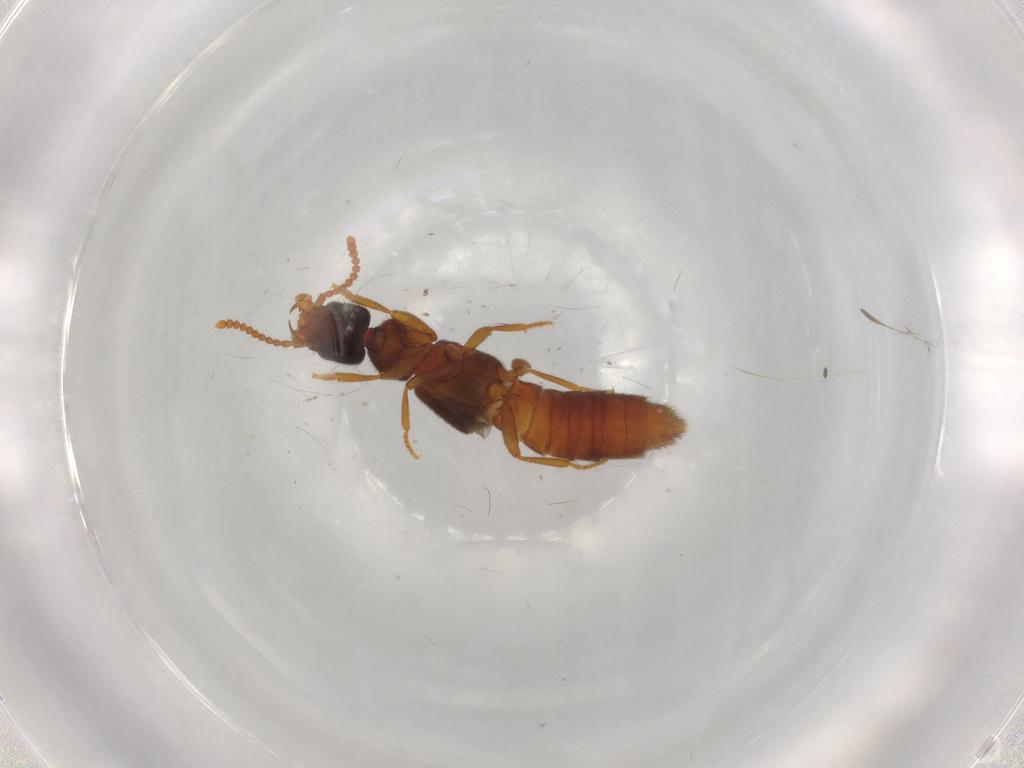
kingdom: Animalia
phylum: Arthropoda
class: Insecta
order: Coleoptera
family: Staphylinidae
